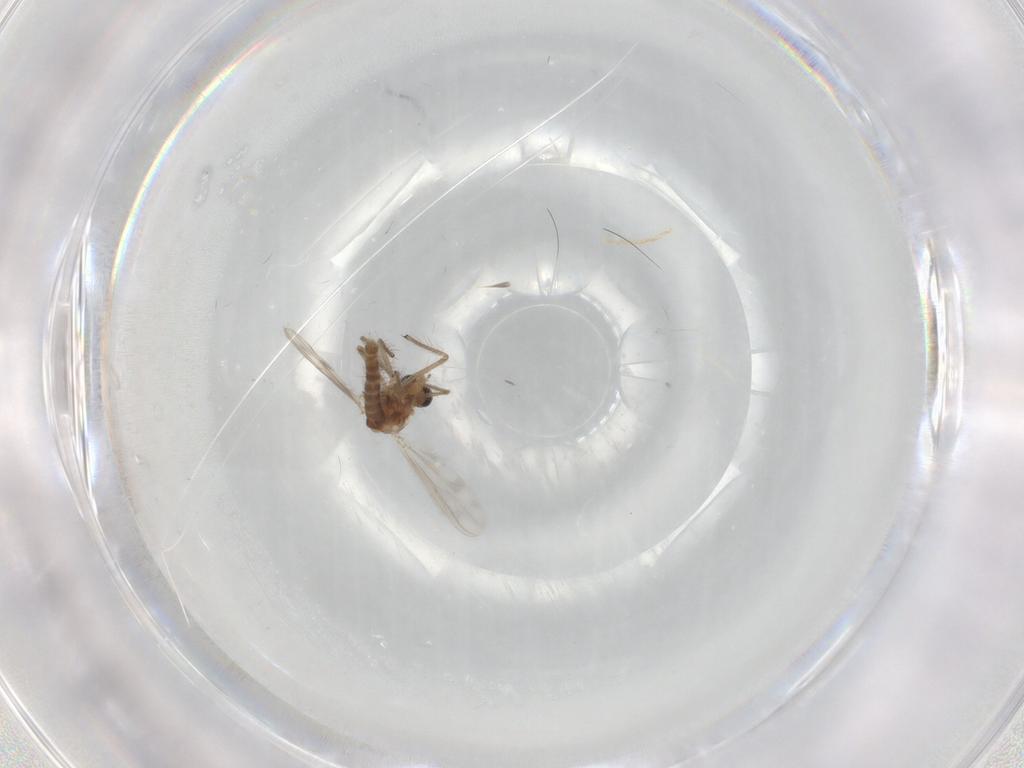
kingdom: Animalia
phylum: Arthropoda
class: Insecta
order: Diptera
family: Chironomidae
